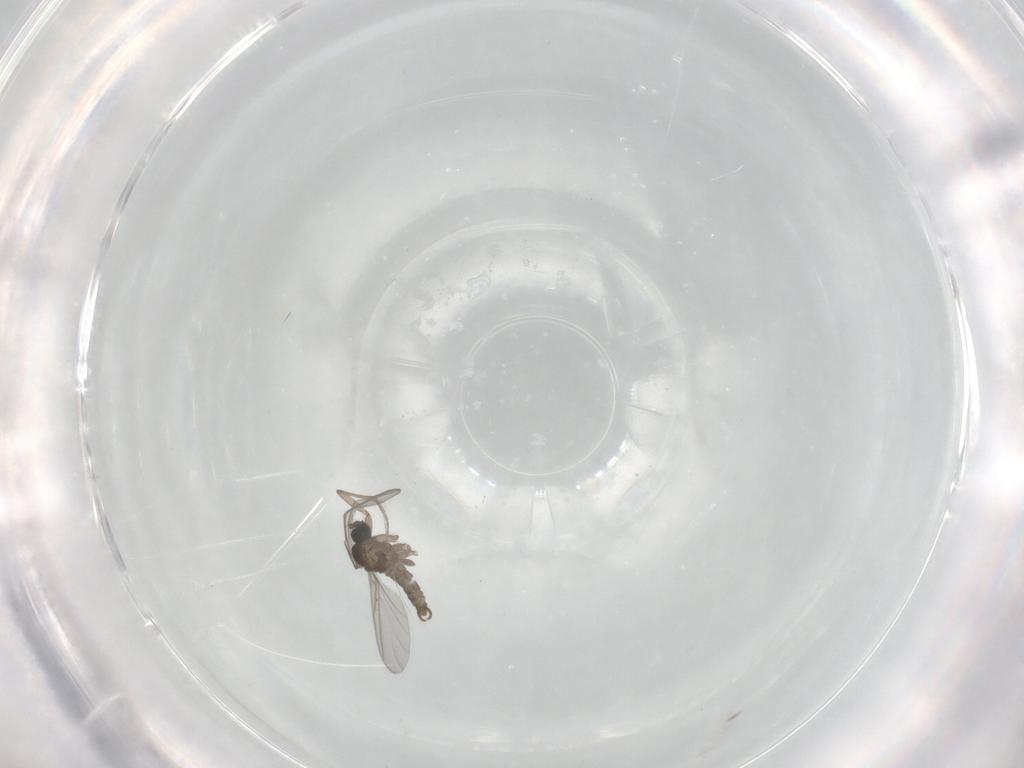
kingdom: Animalia
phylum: Arthropoda
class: Insecta
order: Diptera
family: Sciaridae
